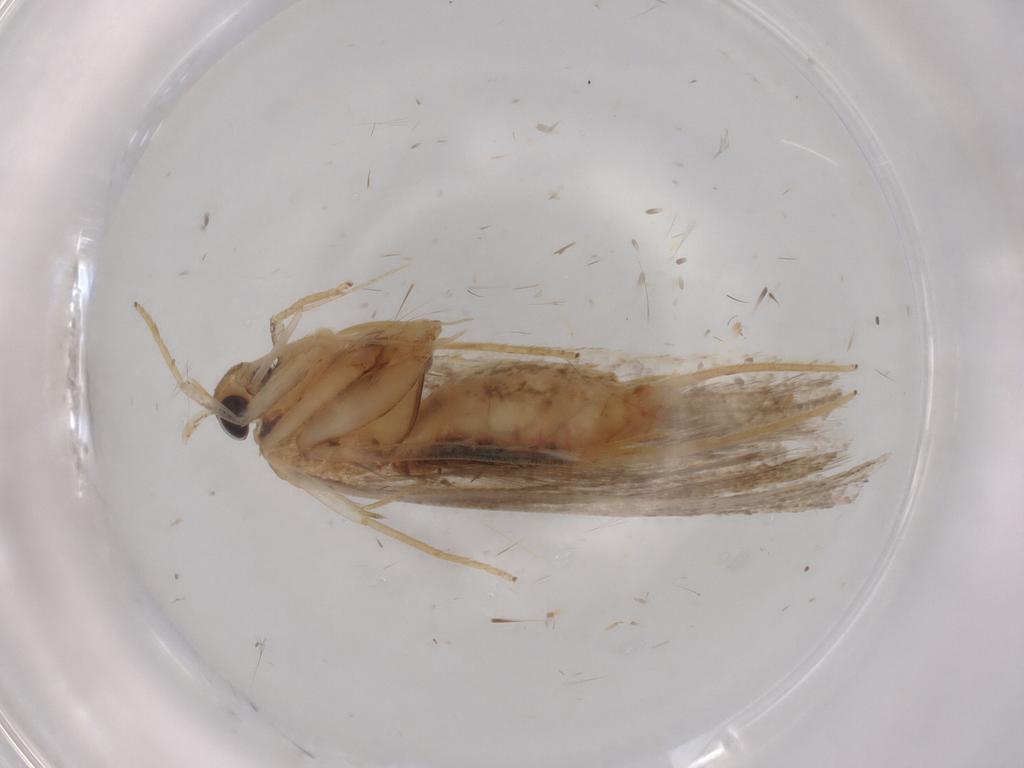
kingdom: Animalia
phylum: Arthropoda
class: Insecta
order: Lepidoptera
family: Lecithoceridae
